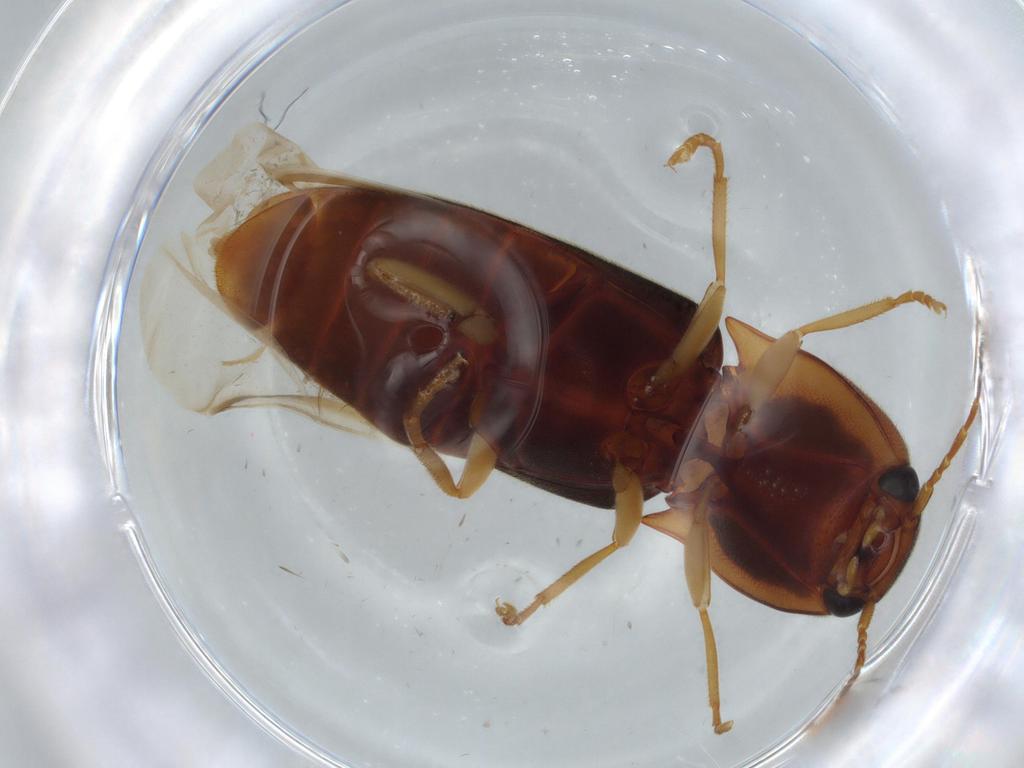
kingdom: Animalia
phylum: Arthropoda
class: Insecta
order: Coleoptera
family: Elateridae
